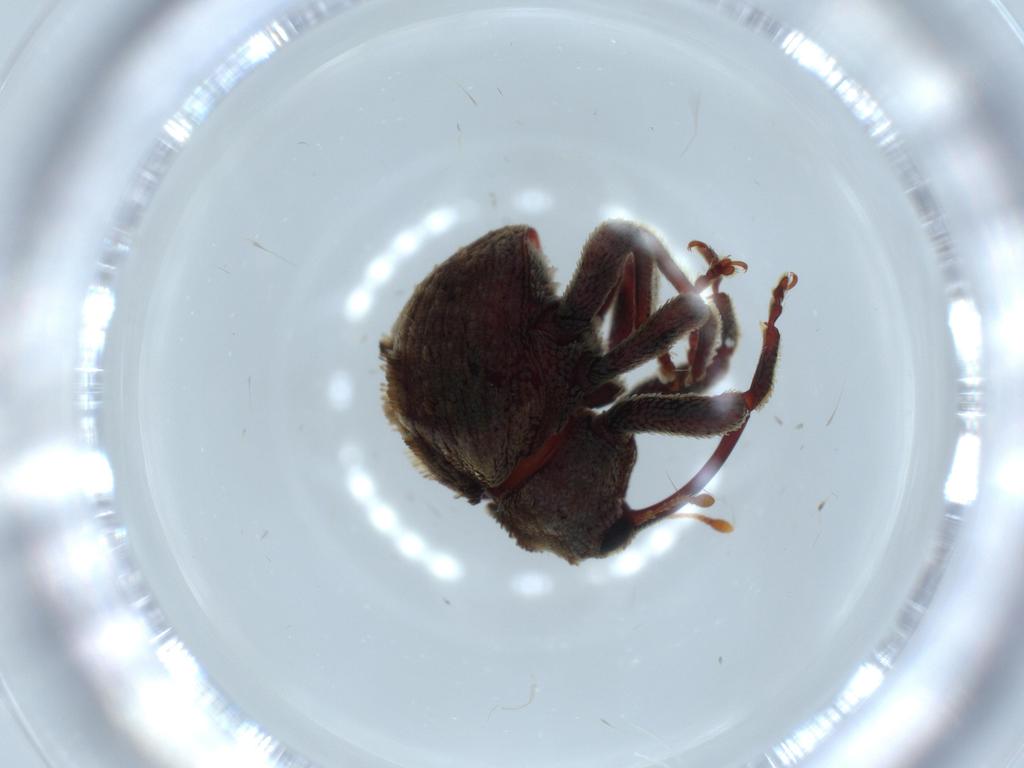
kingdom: Animalia
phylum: Arthropoda
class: Insecta
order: Coleoptera
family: Curculionidae
